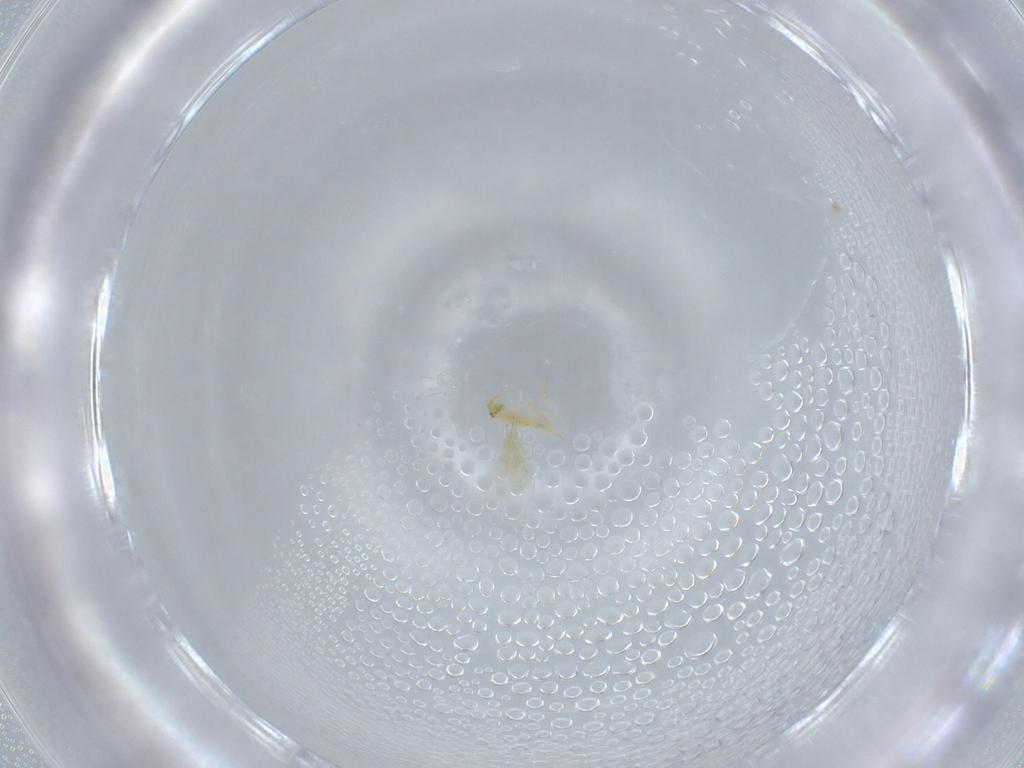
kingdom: Animalia
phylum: Arthropoda
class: Insecta
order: Hymenoptera
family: Aphelinidae
